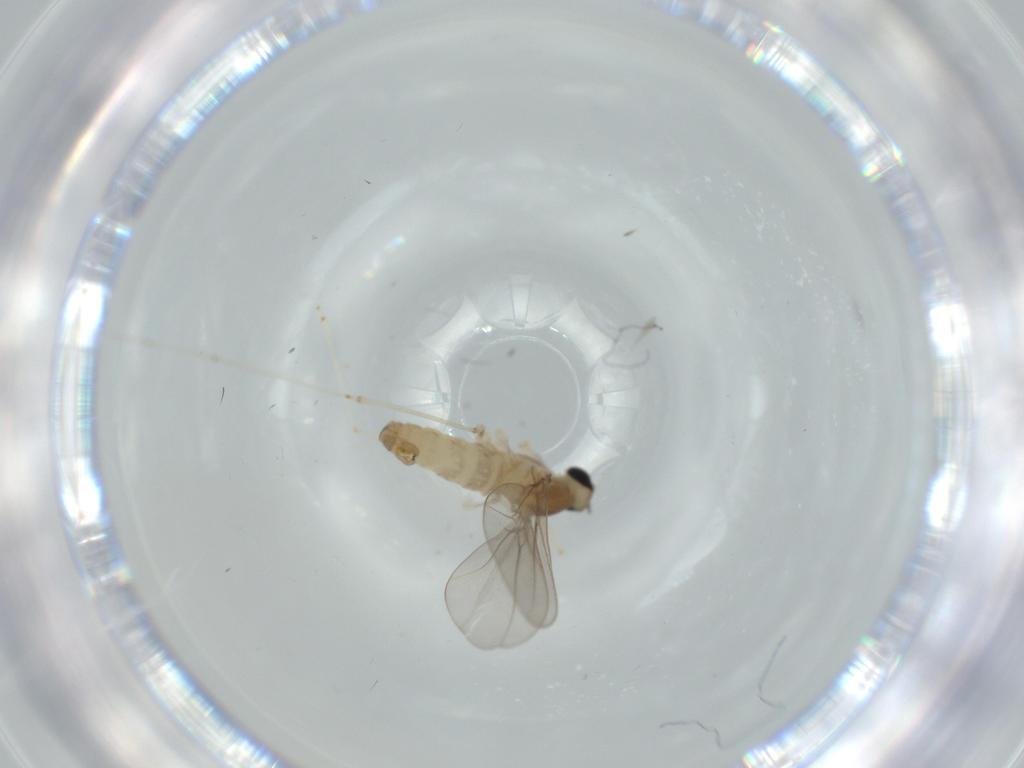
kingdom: Animalia
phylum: Arthropoda
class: Insecta
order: Diptera
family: Cecidomyiidae
